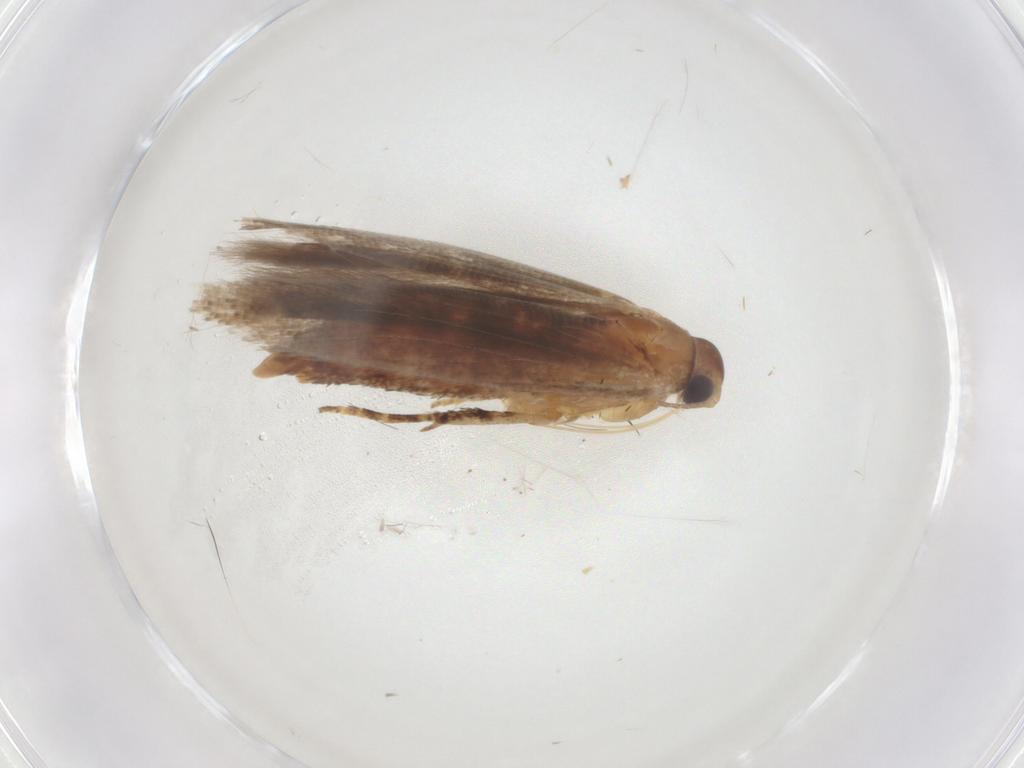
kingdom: Animalia
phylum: Arthropoda
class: Insecta
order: Lepidoptera
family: Gelechiidae
